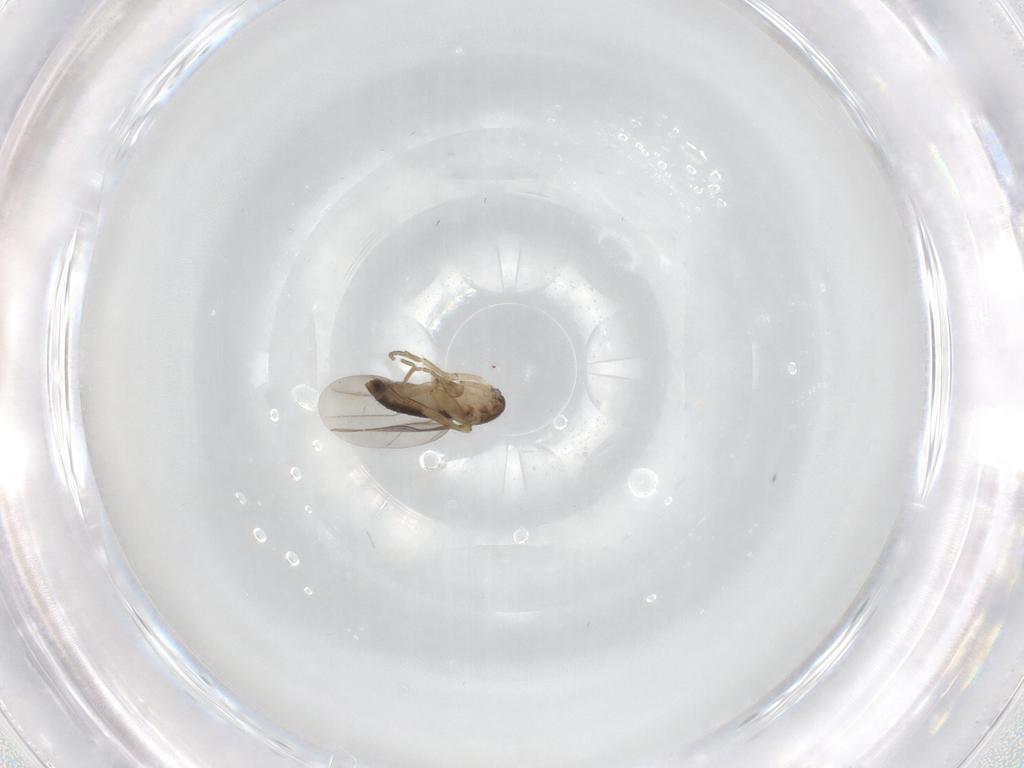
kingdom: Animalia
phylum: Arthropoda
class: Insecta
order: Diptera
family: Phoridae
